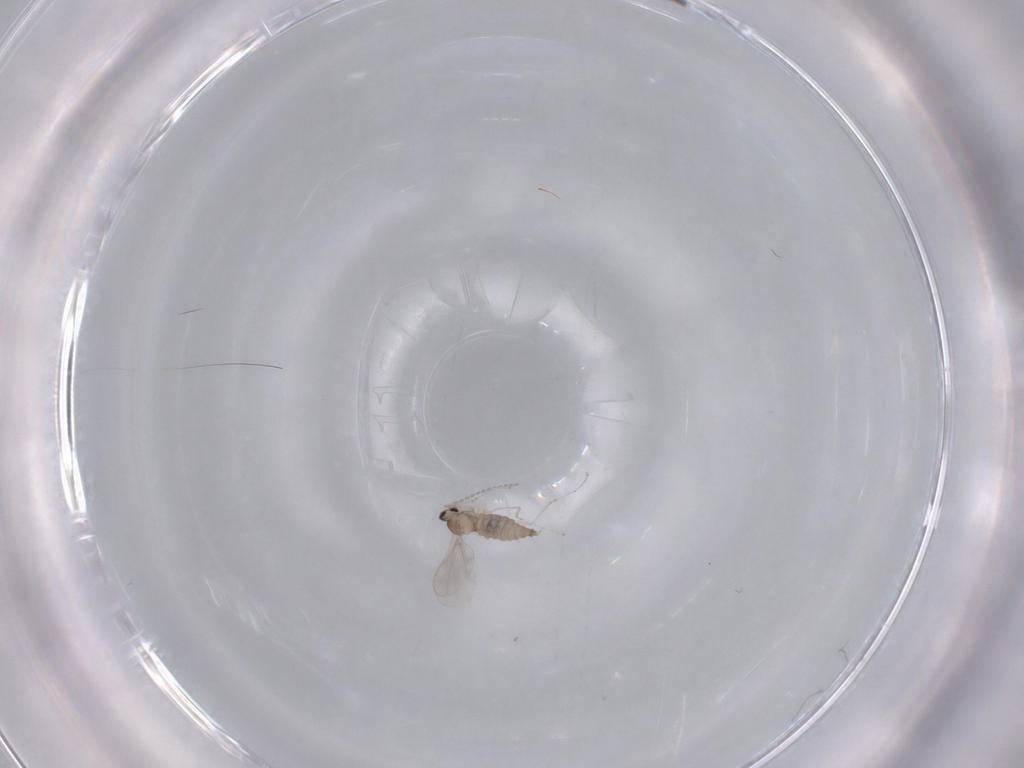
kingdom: Animalia
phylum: Arthropoda
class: Insecta
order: Diptera
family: Cecidomyiidae
